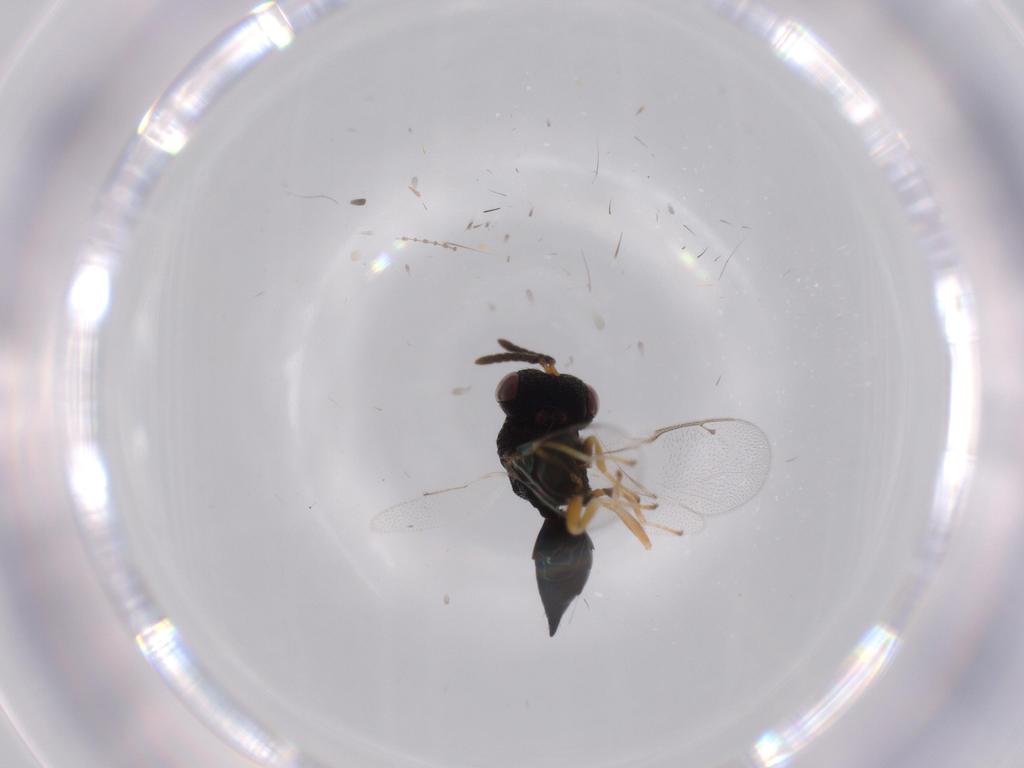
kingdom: Animalia
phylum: Arthropoda
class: Insecta
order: Hymenoptera
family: Pteromalidae
